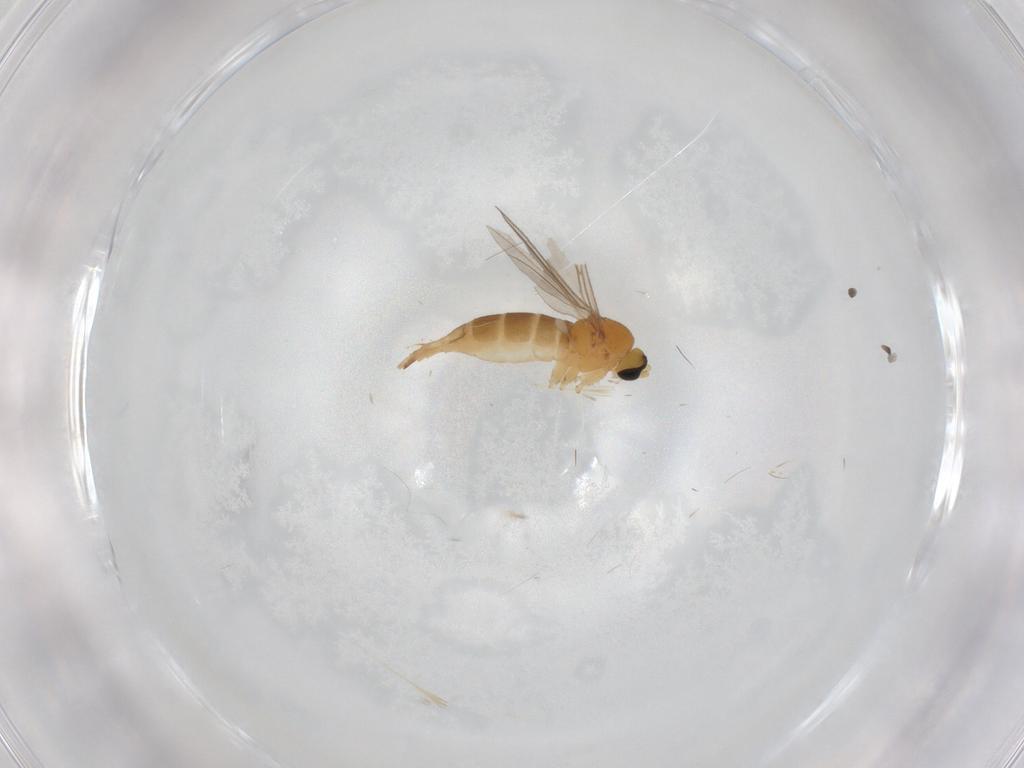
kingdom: Animalia
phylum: Arthropoda
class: Insecta
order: Diptera
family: Sciaridae
